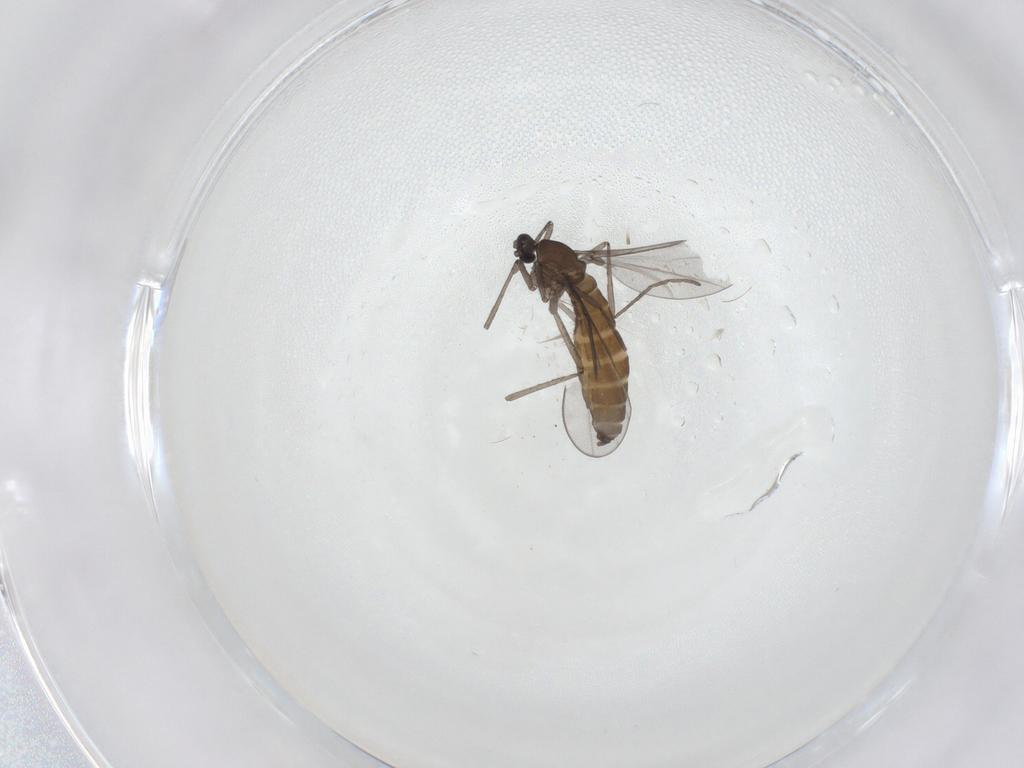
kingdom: Animalia
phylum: Arthropoda
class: Insecta
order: Diptera
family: Cecidomyiidae
